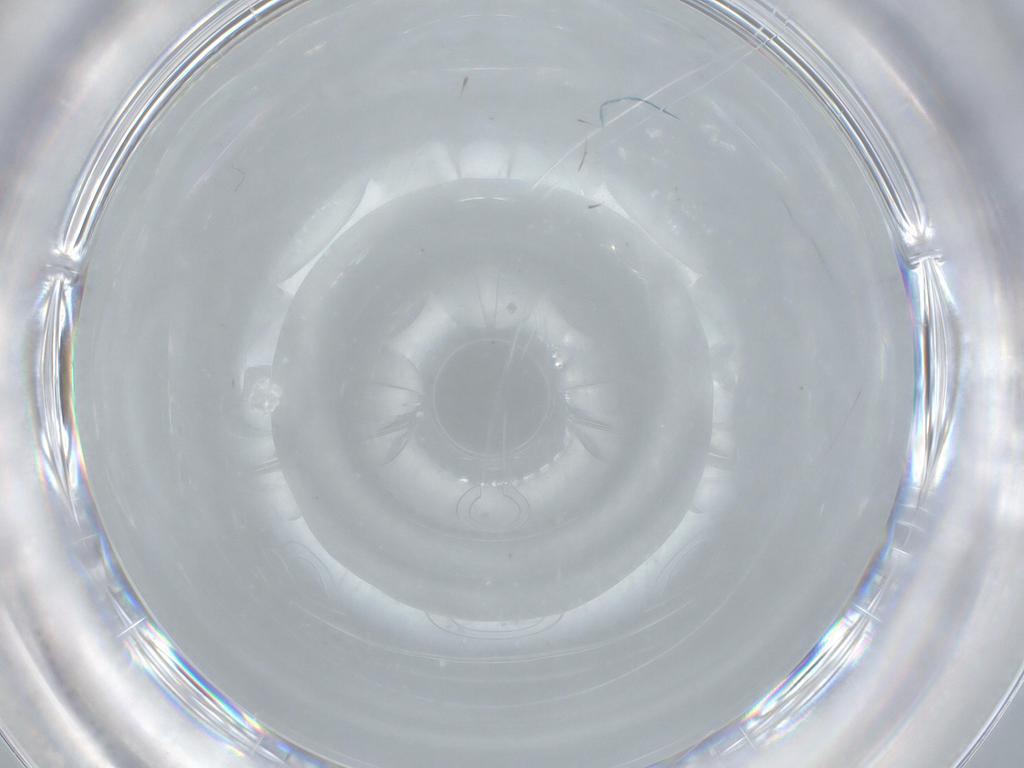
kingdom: Animalia
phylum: Arthropoda
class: Insecta
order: Diptera
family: Cecidomyiidae
